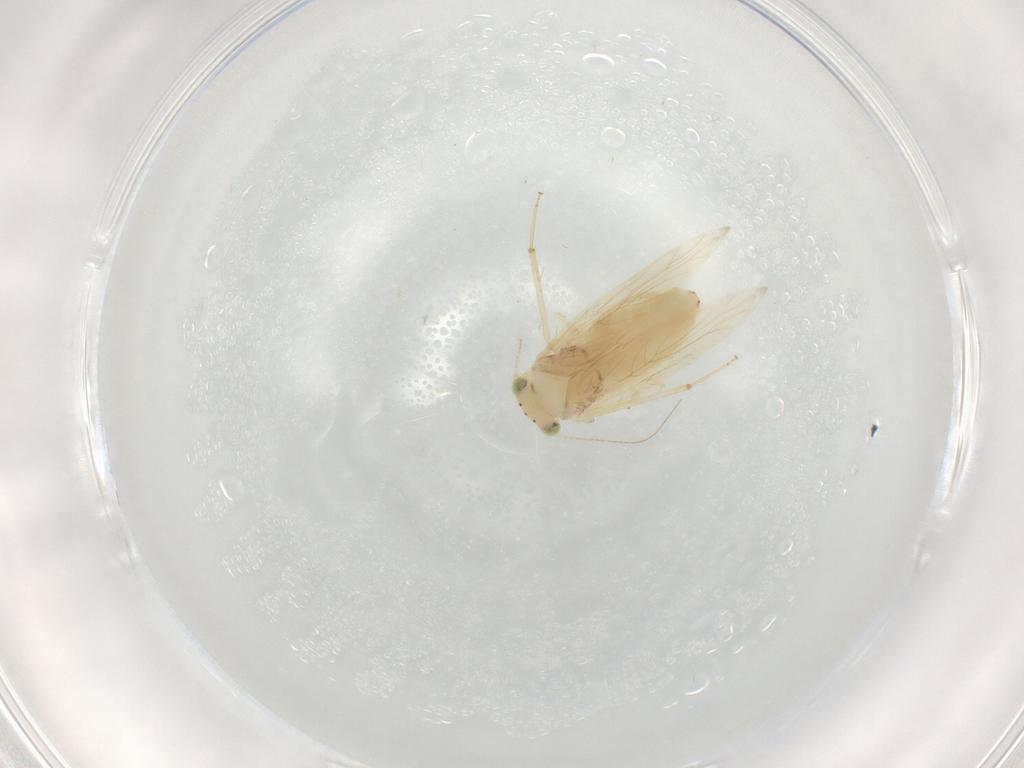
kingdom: Animalia
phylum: Arthropoda
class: Insecta
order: Psocodea
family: Lepidopsocidae
